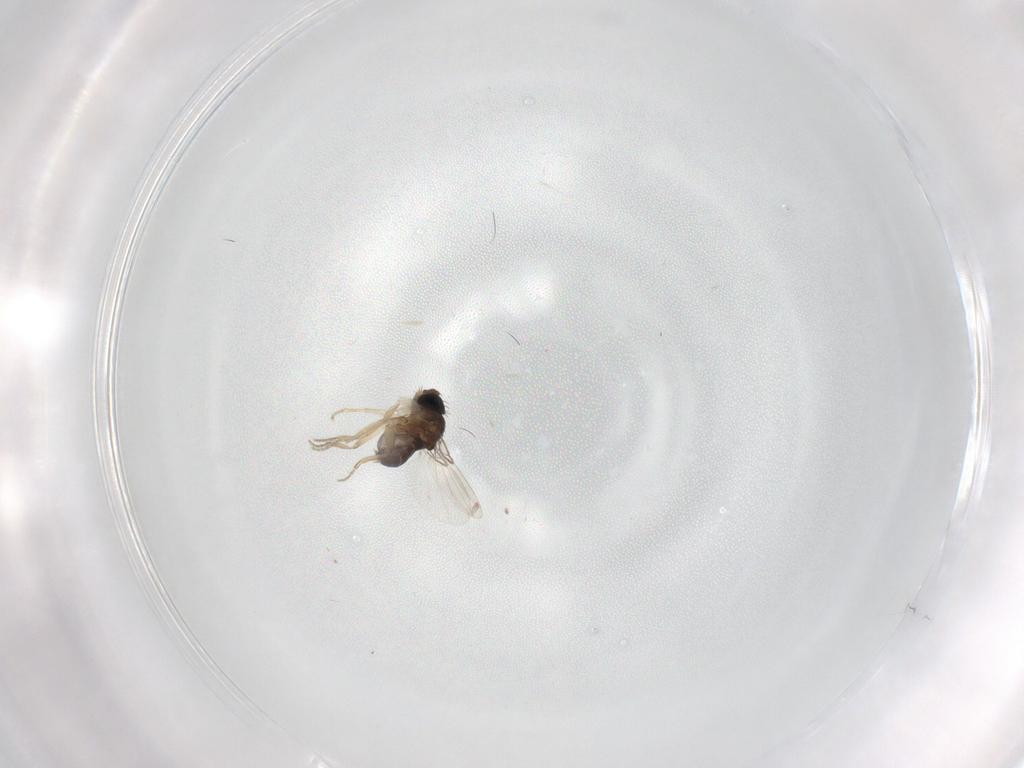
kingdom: Animalia
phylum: Arthropoda
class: Insecta
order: Diptera
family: Phoridae
